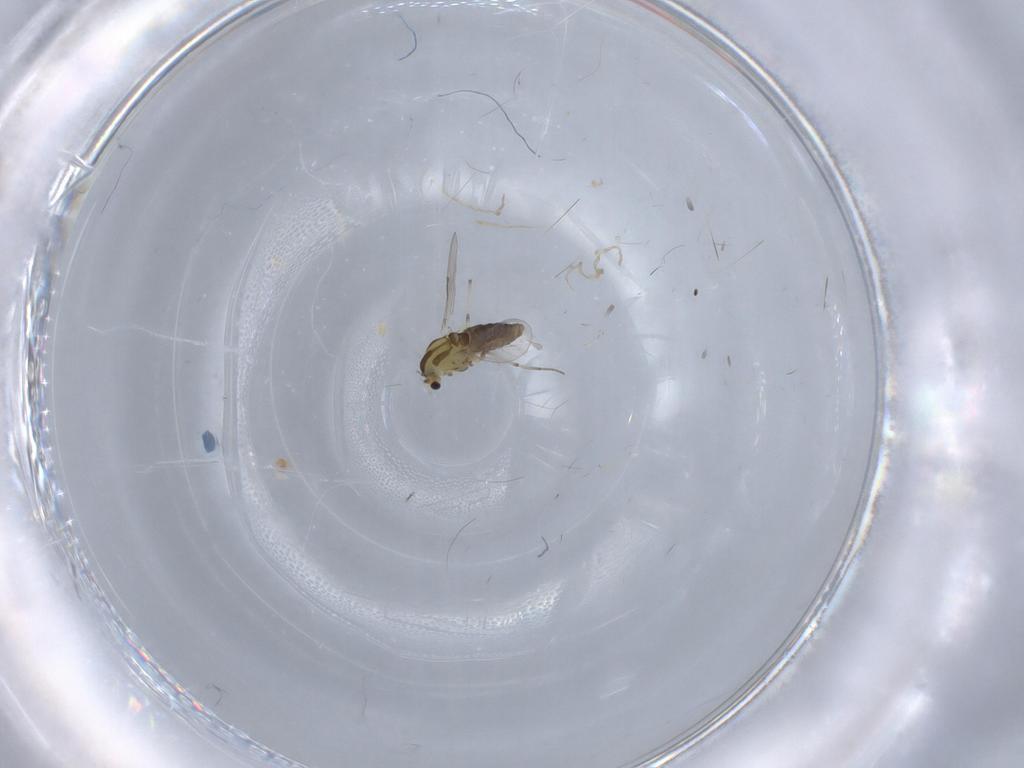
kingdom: Animalia
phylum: Arthropoda
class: Insecta
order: Diptera
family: Chironomidae
